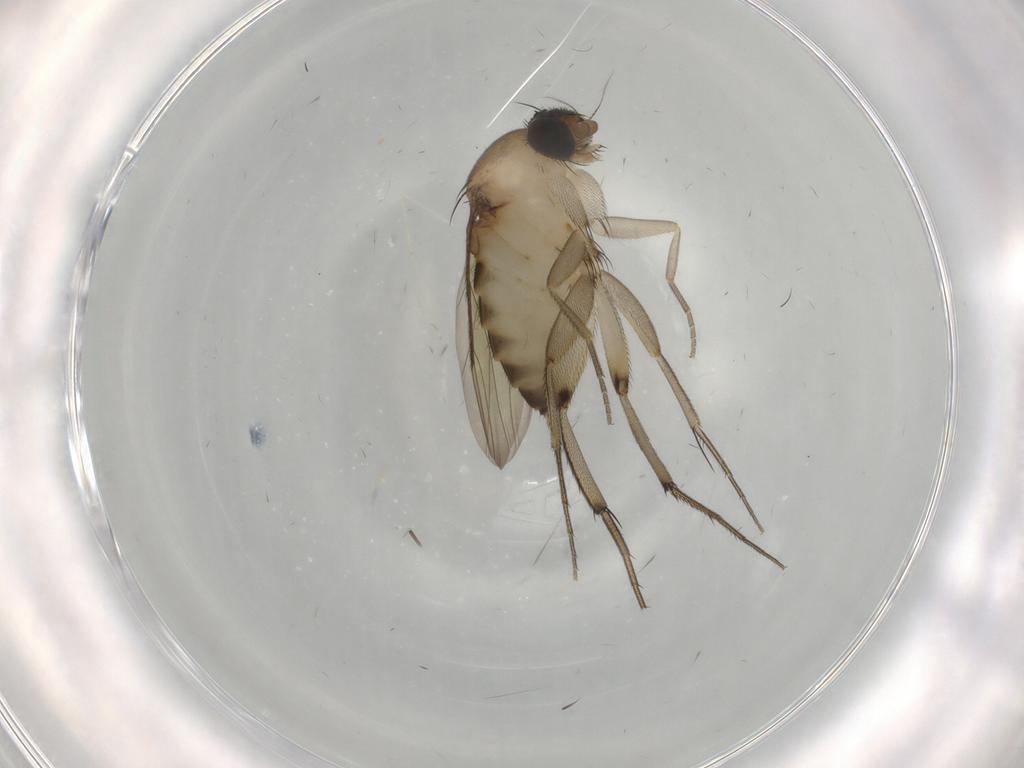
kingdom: Animalia
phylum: Arthropoda
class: Insecta
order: Diptera
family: Phoridae
